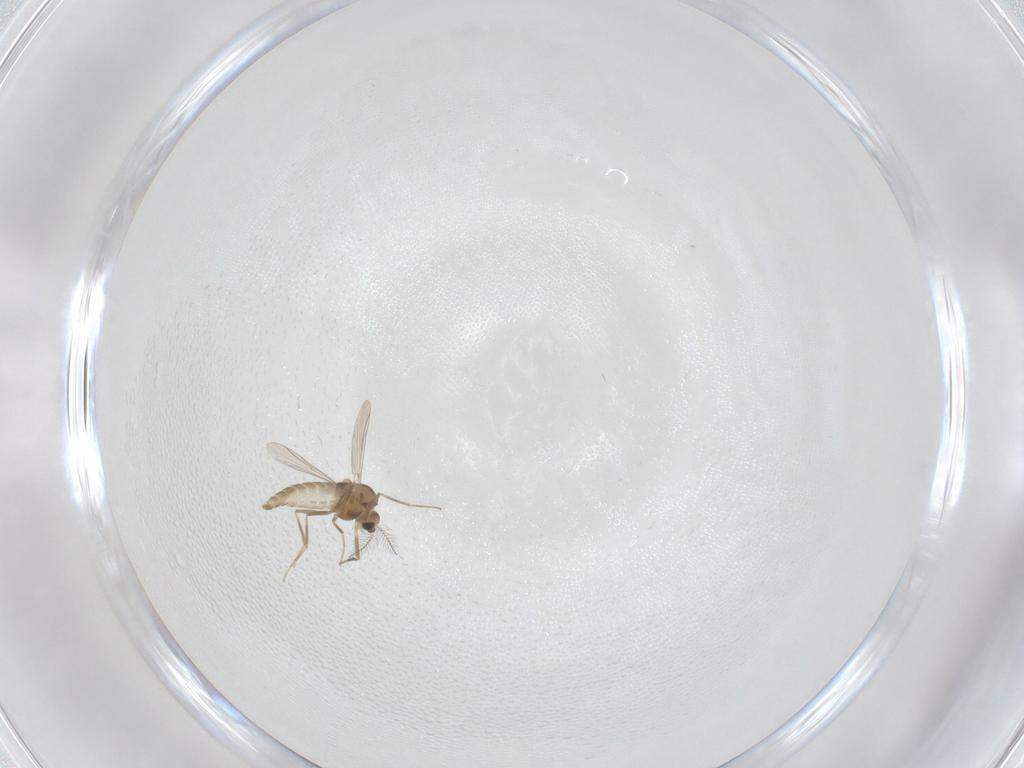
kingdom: Animalia
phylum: Arthropoda
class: Insecta
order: Diptera
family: Chironomidae
